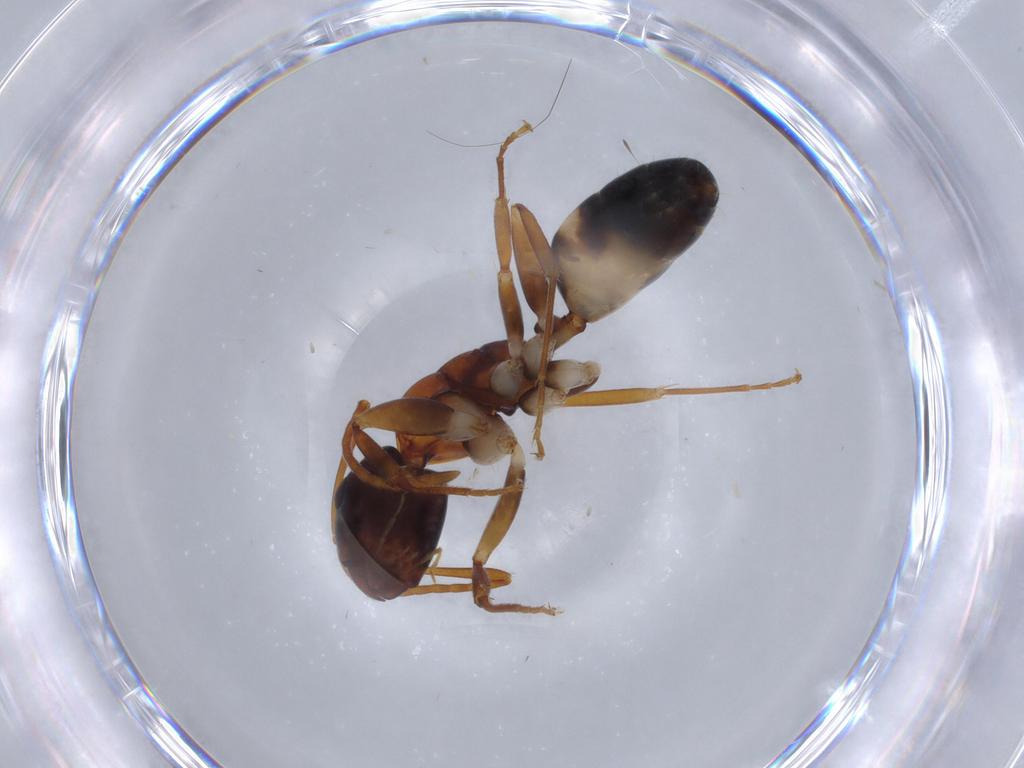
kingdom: Animalia
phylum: Arthropoda
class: Insecta
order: Hymenoptera
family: Formicidae
